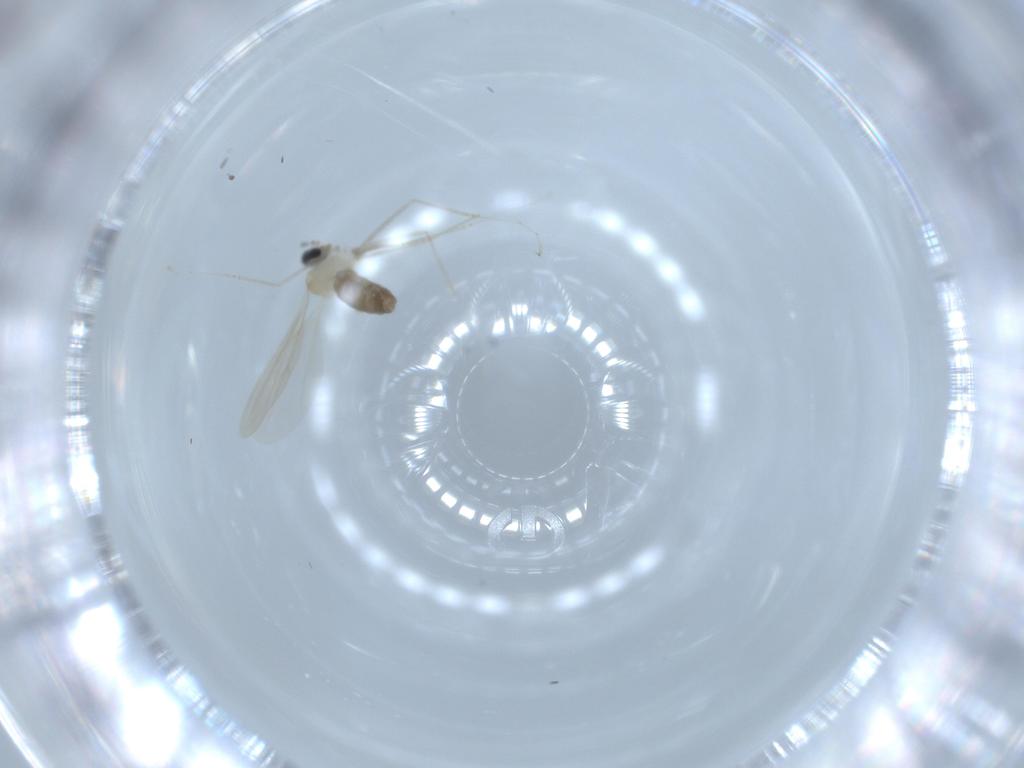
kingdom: Animalia
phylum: Arthropoda
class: Insecta
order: Diptera
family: Cecidomyiidae
